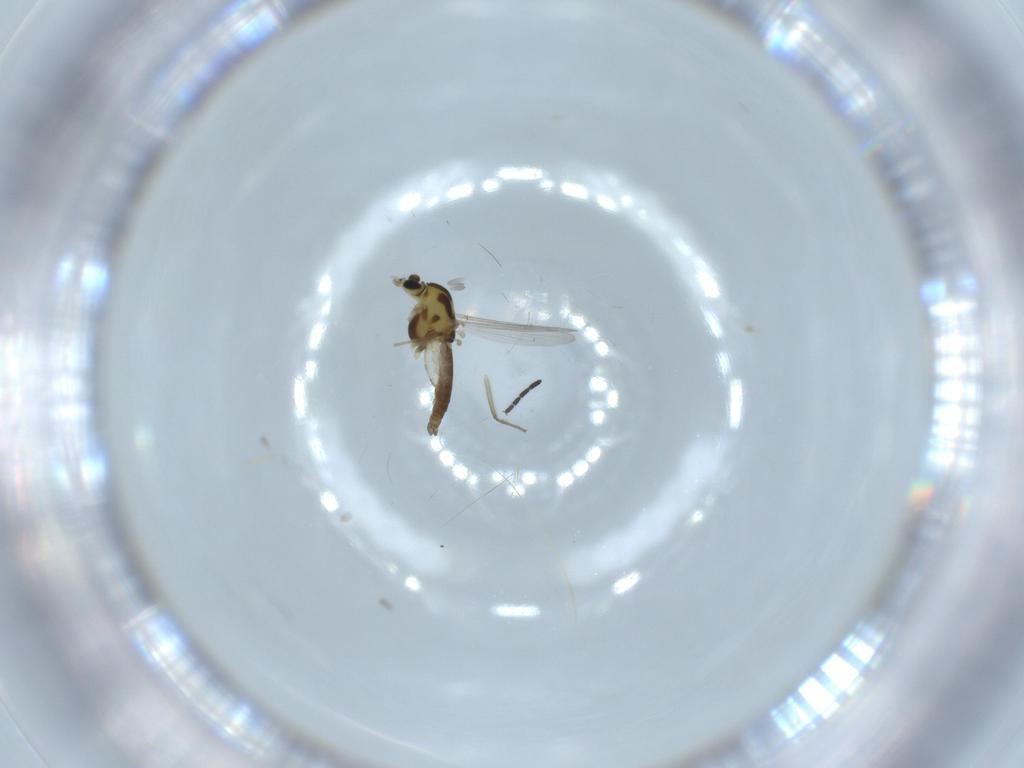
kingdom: Animalia
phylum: Arthropoda
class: Insecta
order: Diptera
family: Chironomidae
